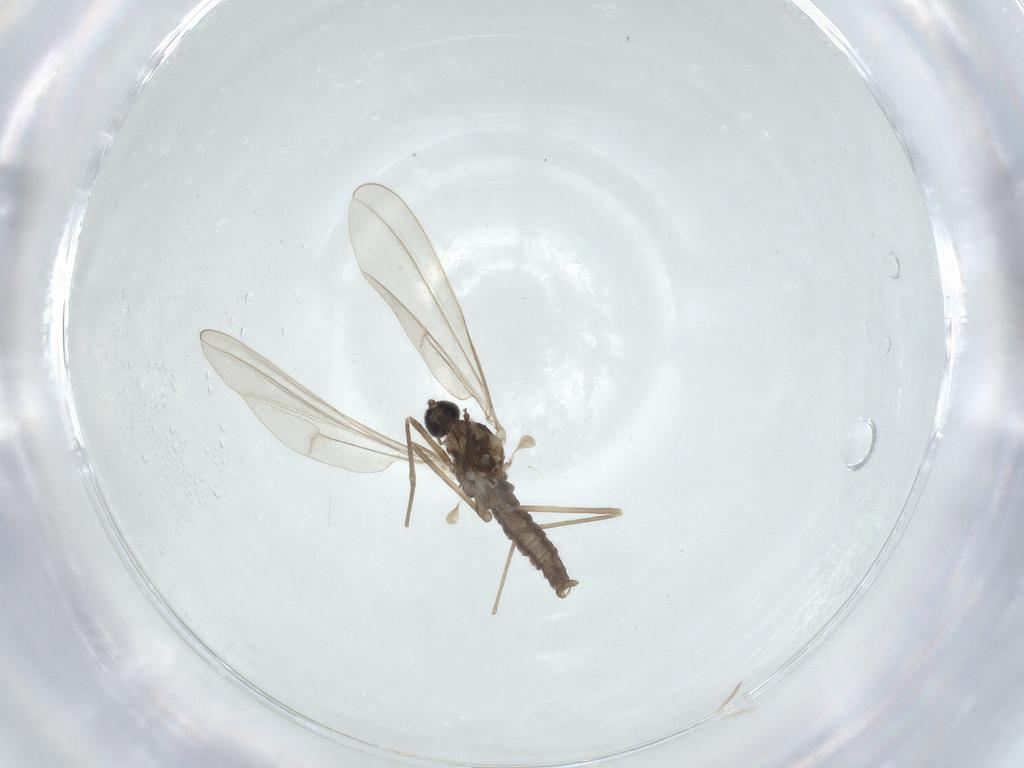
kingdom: Animalia
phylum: Arthropoda
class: Insecta
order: Diptera
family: Cecidomyiidae
